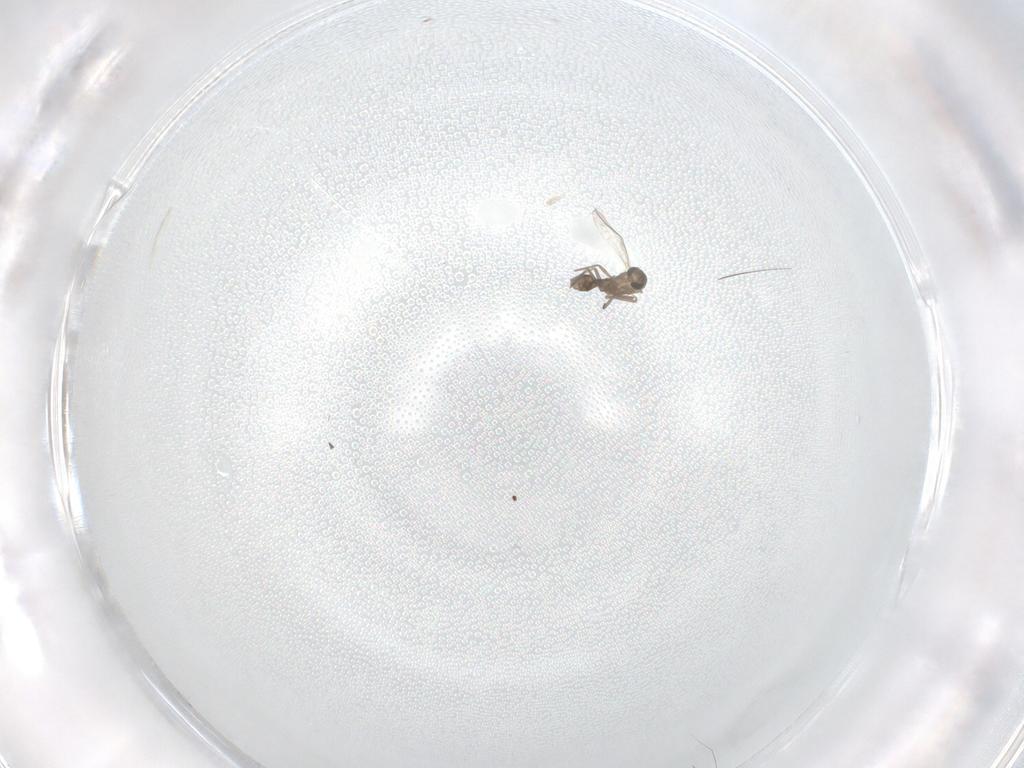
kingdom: Animalia
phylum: Arthropoda
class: Insecta
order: Diptera
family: Chironomidae
